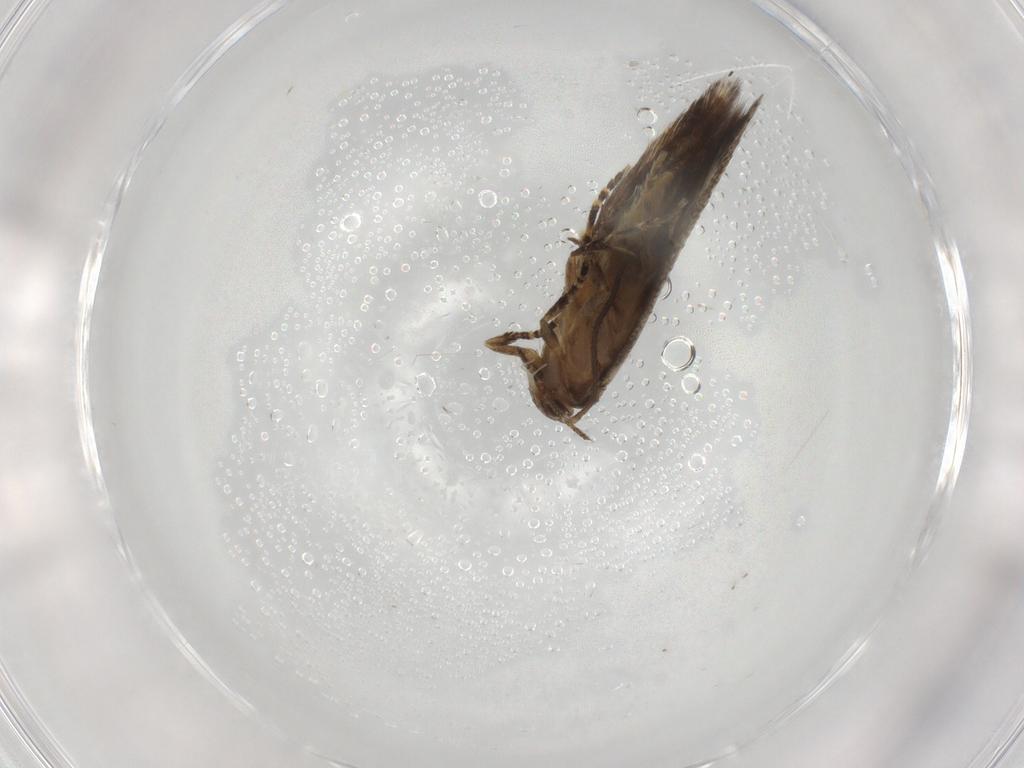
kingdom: Animalia
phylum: Arthropoda
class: Insecta
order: Lepidoptera
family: Elachistidae
